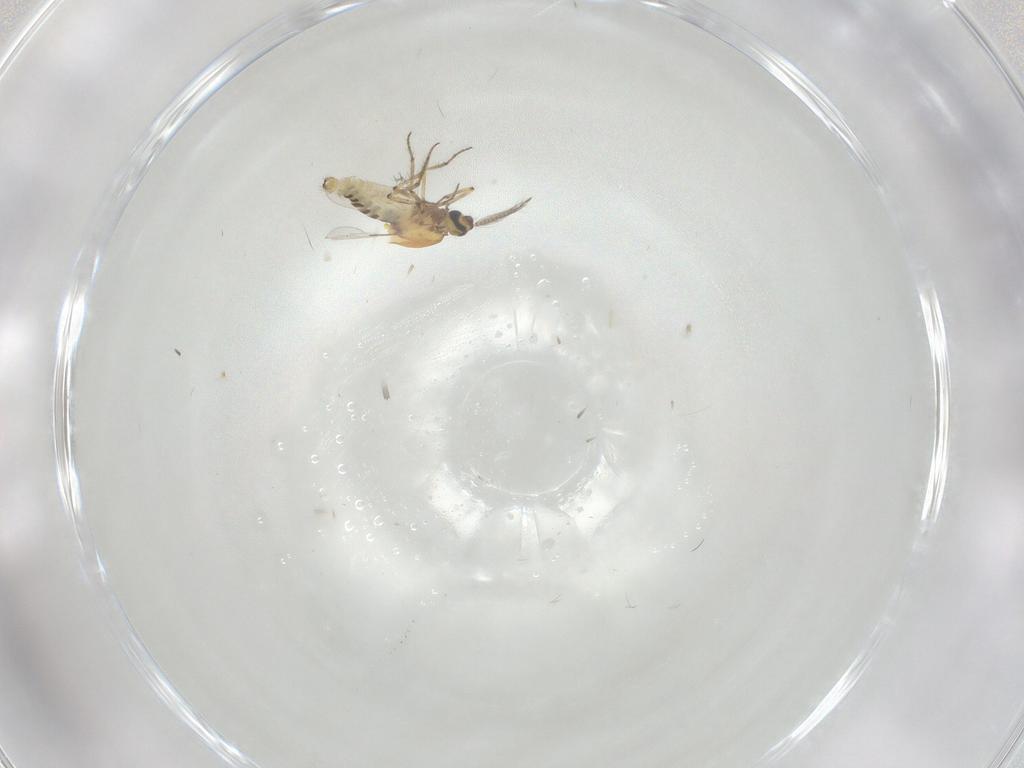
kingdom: Animalia
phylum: Arthropoda
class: Insecta
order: Diptera
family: Ceratopogonidae
